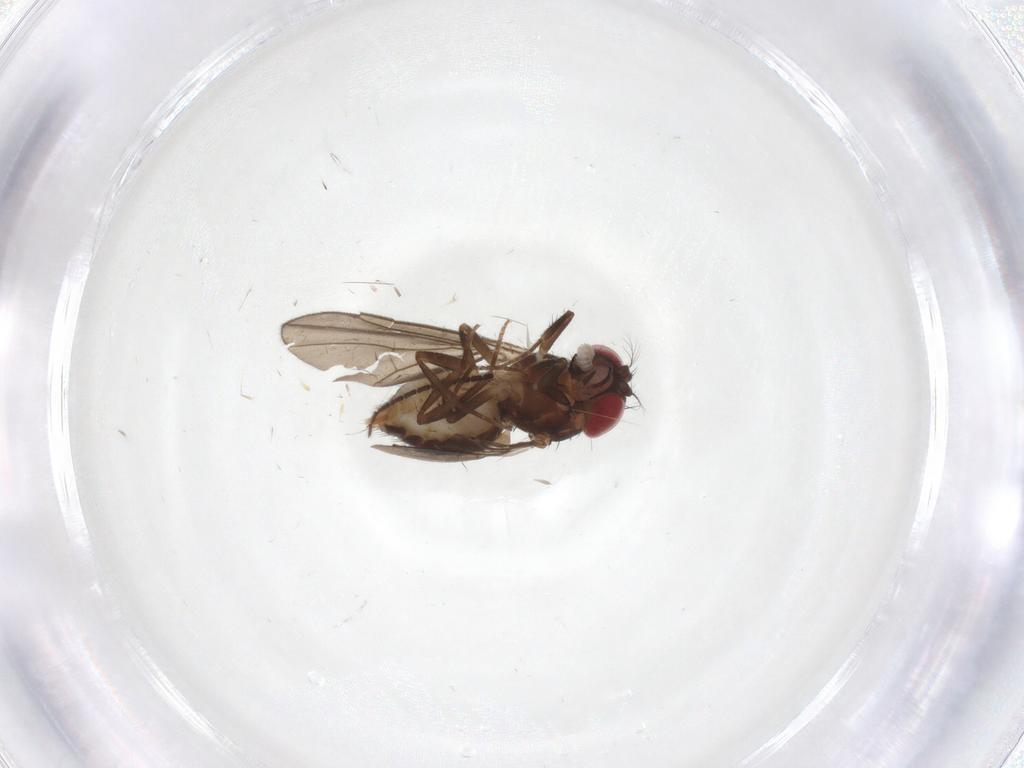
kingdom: Animalia
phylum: Arthropoda
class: Insecta
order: Diptera
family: Drosophilidae
